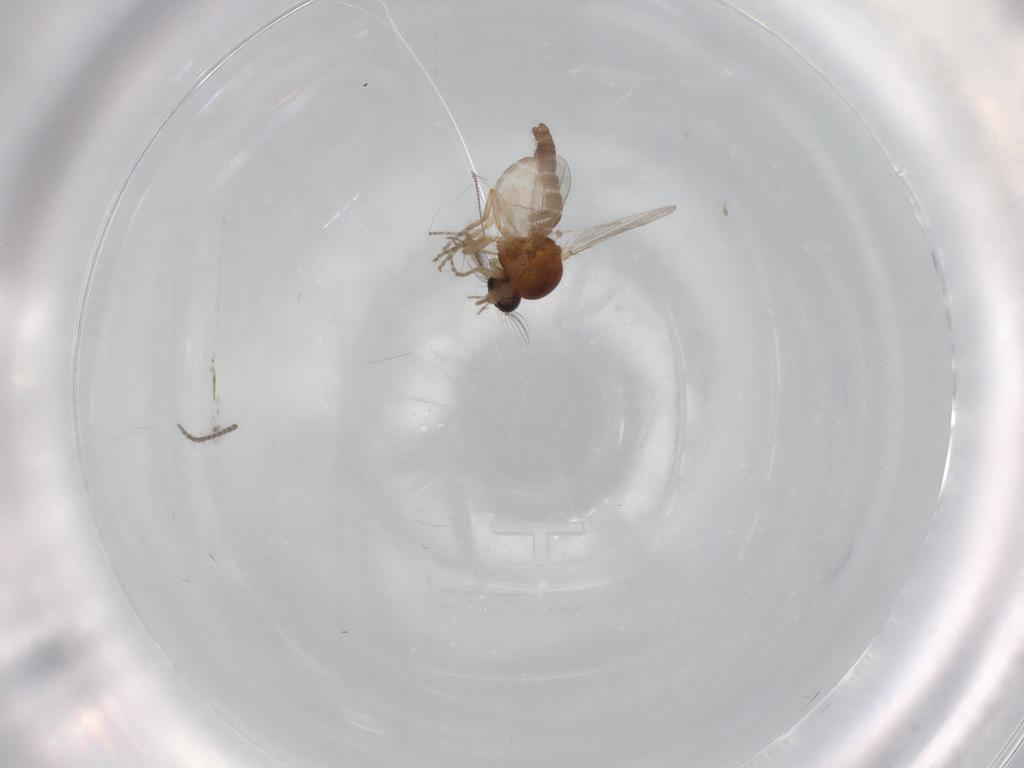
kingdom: Animalia
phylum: Arthropoda
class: Insecta
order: Diptera
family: Ceratopogonidae
